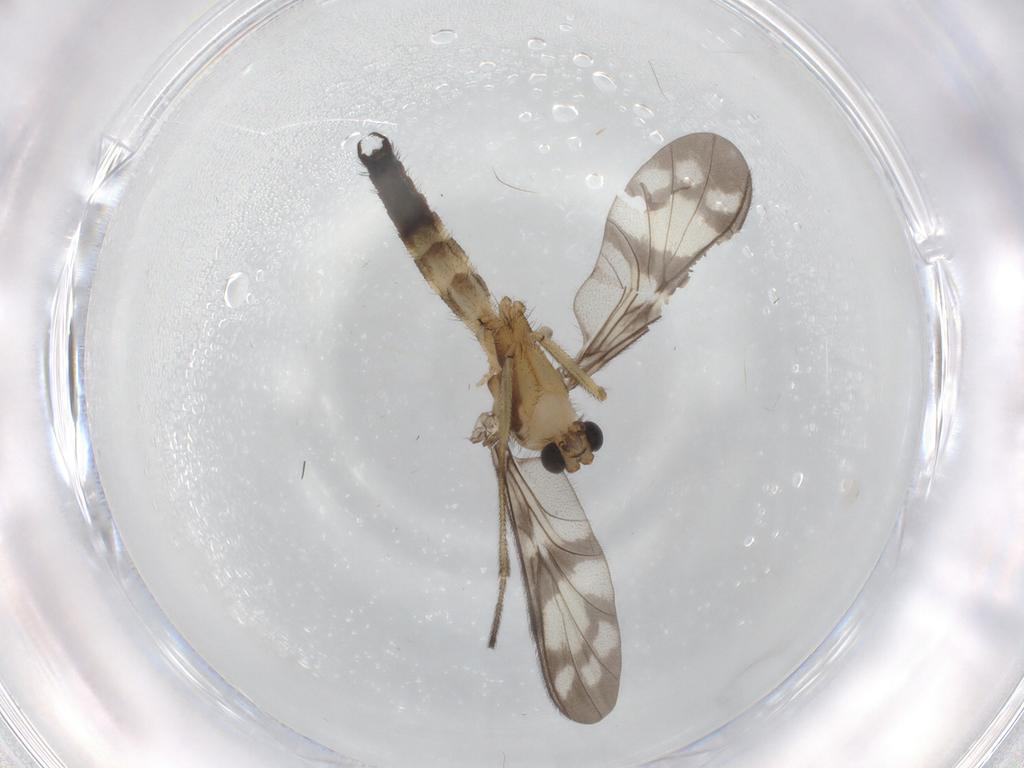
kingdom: Animalia
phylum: Arthropoda
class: Insecta
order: Diptera
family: Keroplatidae
